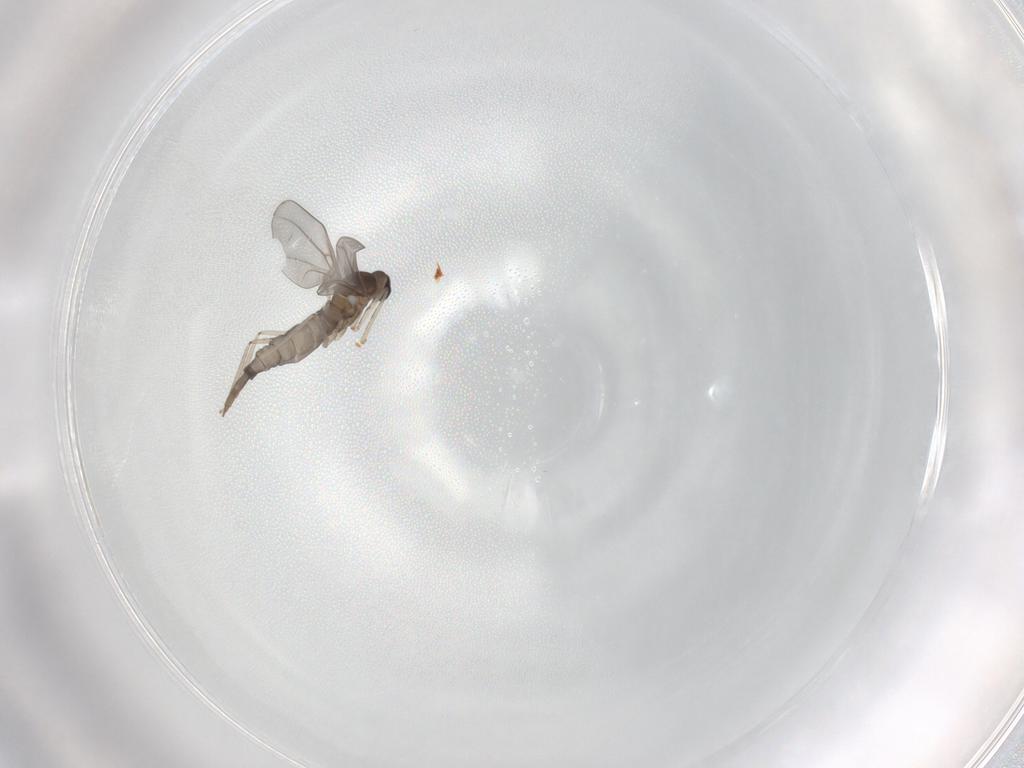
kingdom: Animalia
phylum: Arthropoda
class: Insecta
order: Diptera
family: Cecidomyiidae
